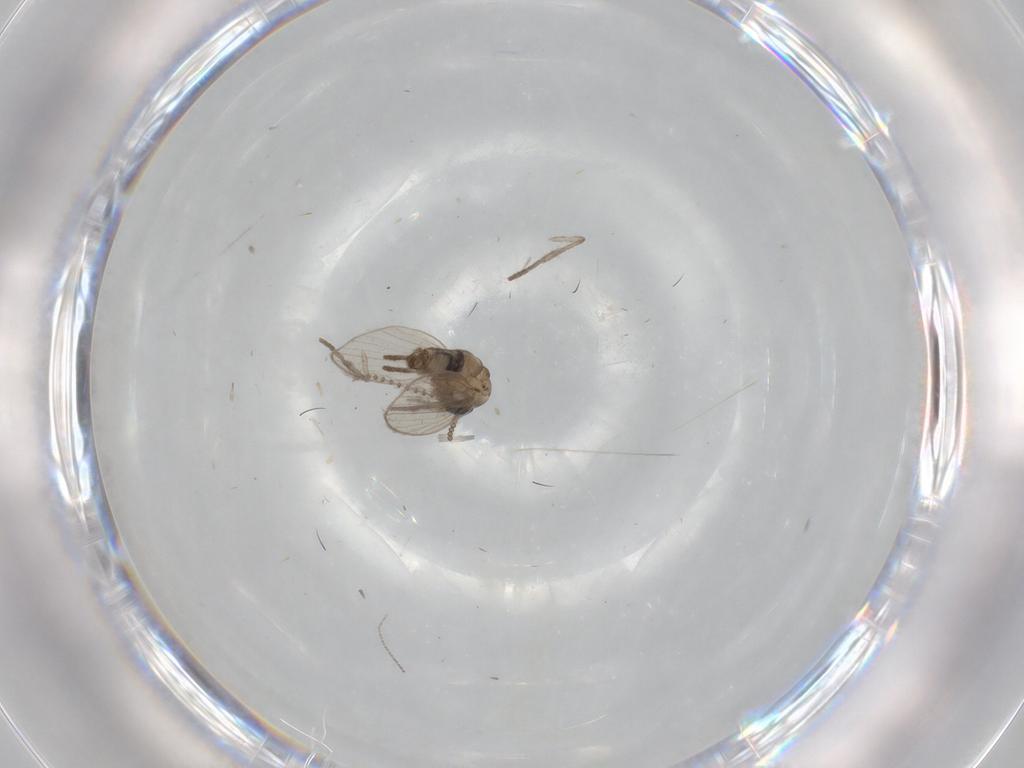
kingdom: Animalia
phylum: Arthropoda
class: Insecta
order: Diptera
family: Psychodidae
